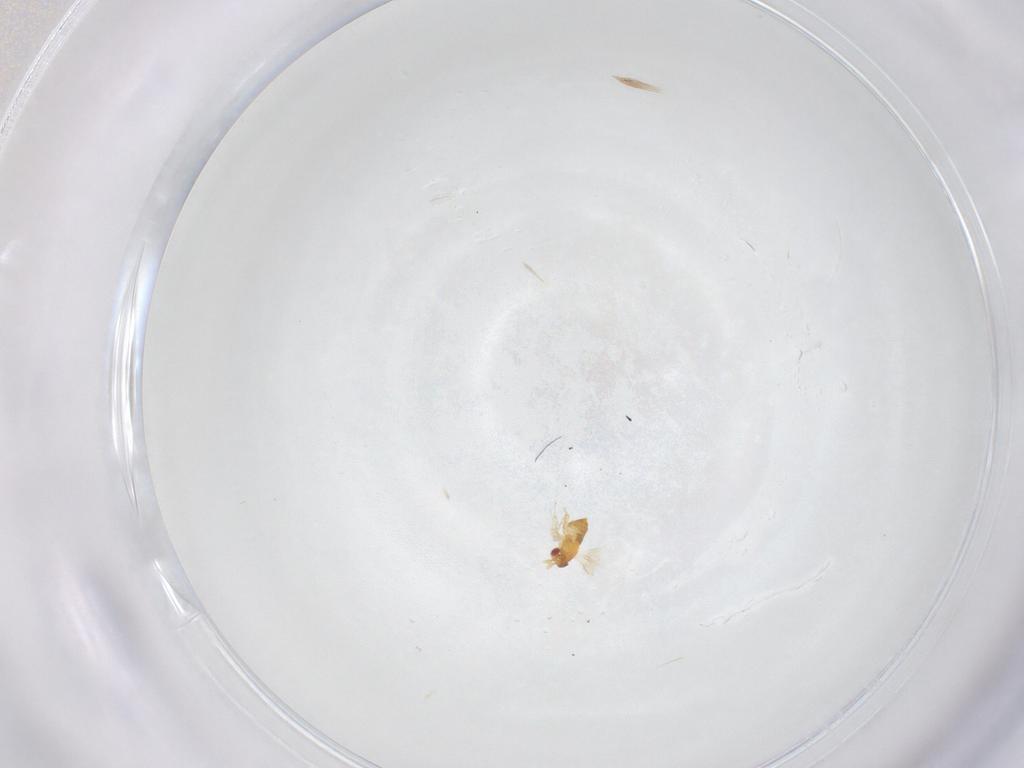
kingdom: Animalia
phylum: Arthropoda
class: Insecta
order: Hymenoptera
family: Trichogrammatidae
